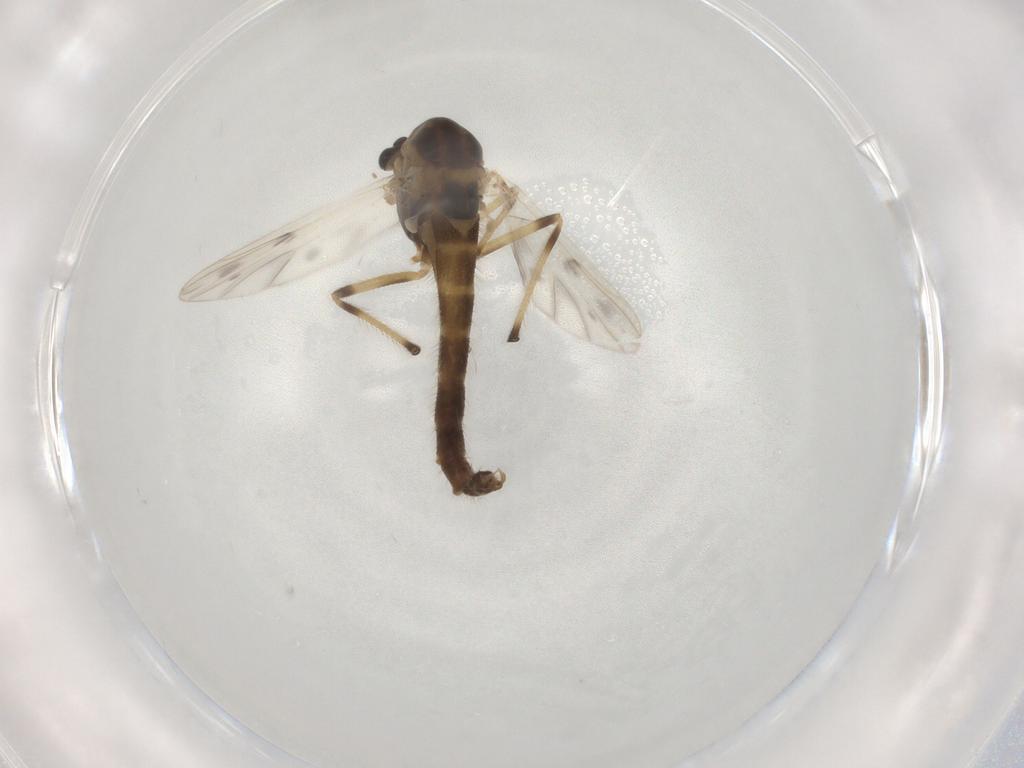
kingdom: Animalia
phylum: Arthropoda
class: Insecta
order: Diptera
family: Chironomidae
